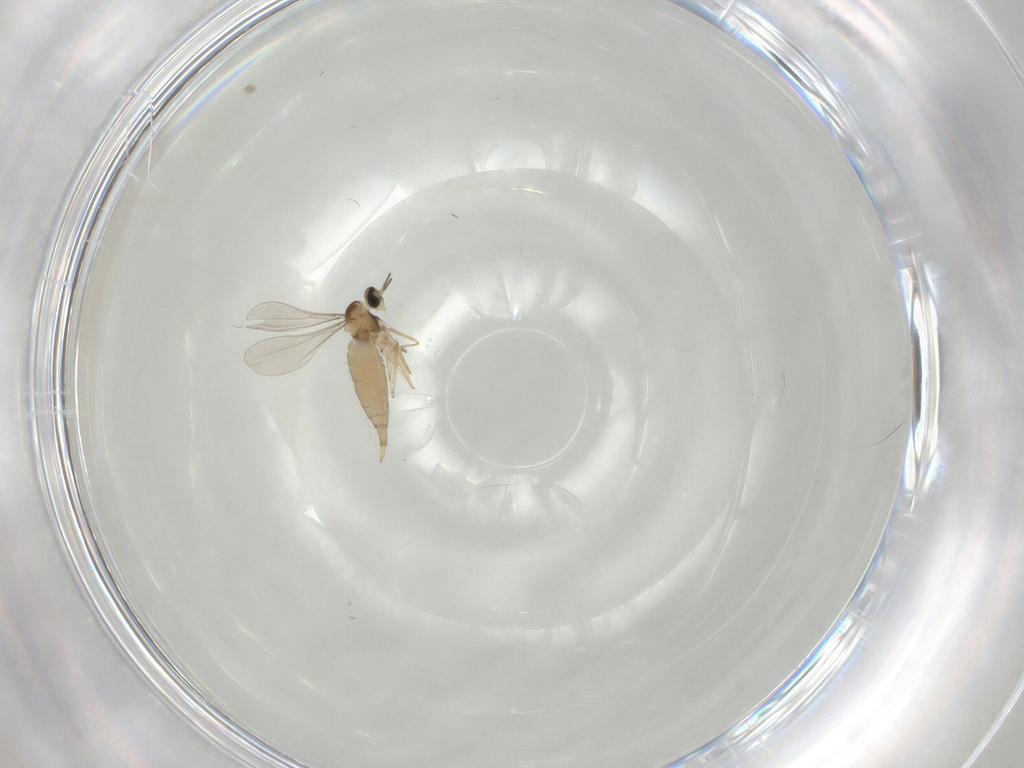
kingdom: Animalia
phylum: Arthropoda
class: Insecta
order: Diptera
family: Cecidomyiidae
